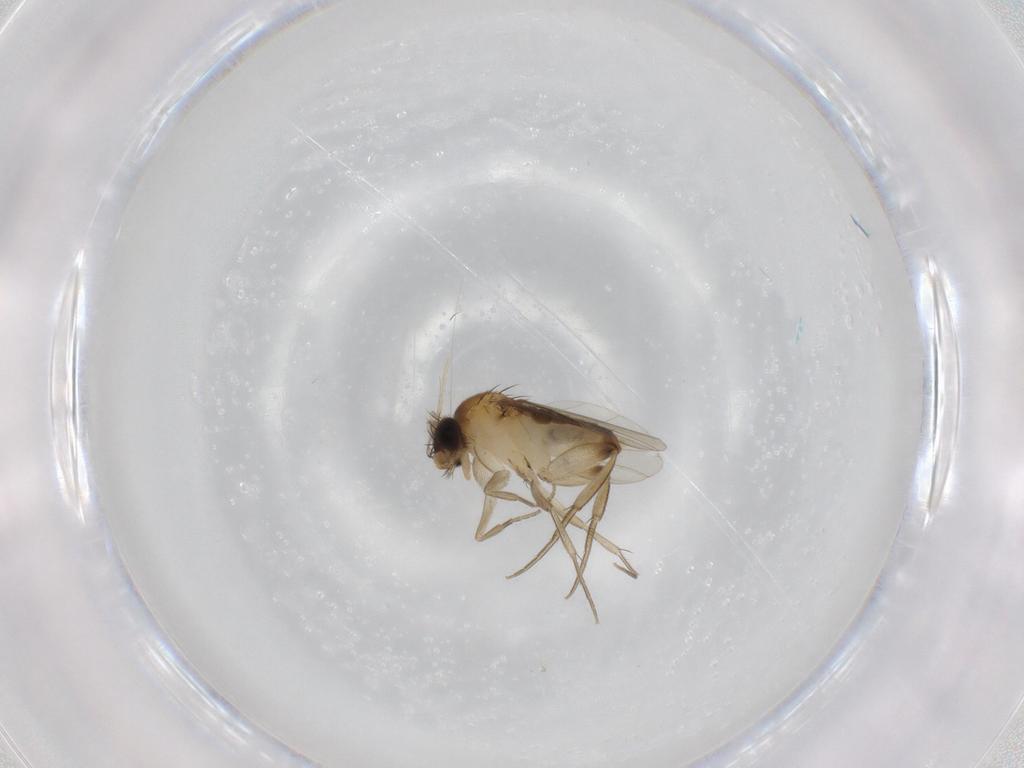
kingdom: Animalia
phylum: Arthropoda
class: Insecta
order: Diptera
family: Phoridae
